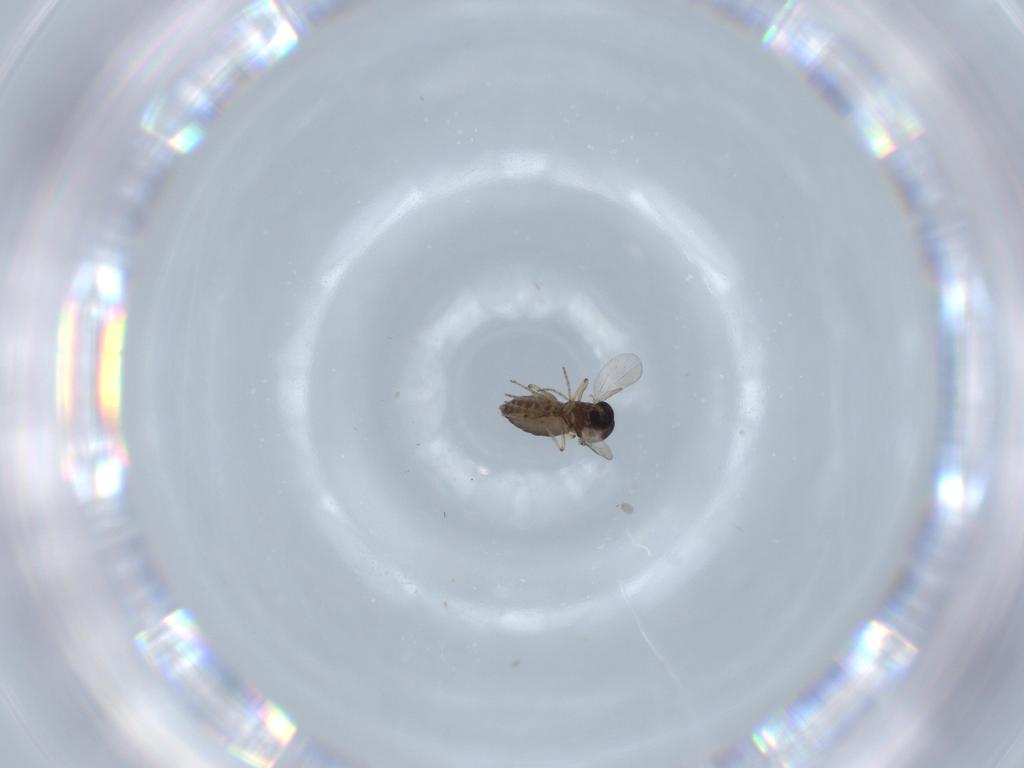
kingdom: Animalia
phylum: Arthropoda
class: Insecta
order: Diptera
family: Ceratopogonidae
